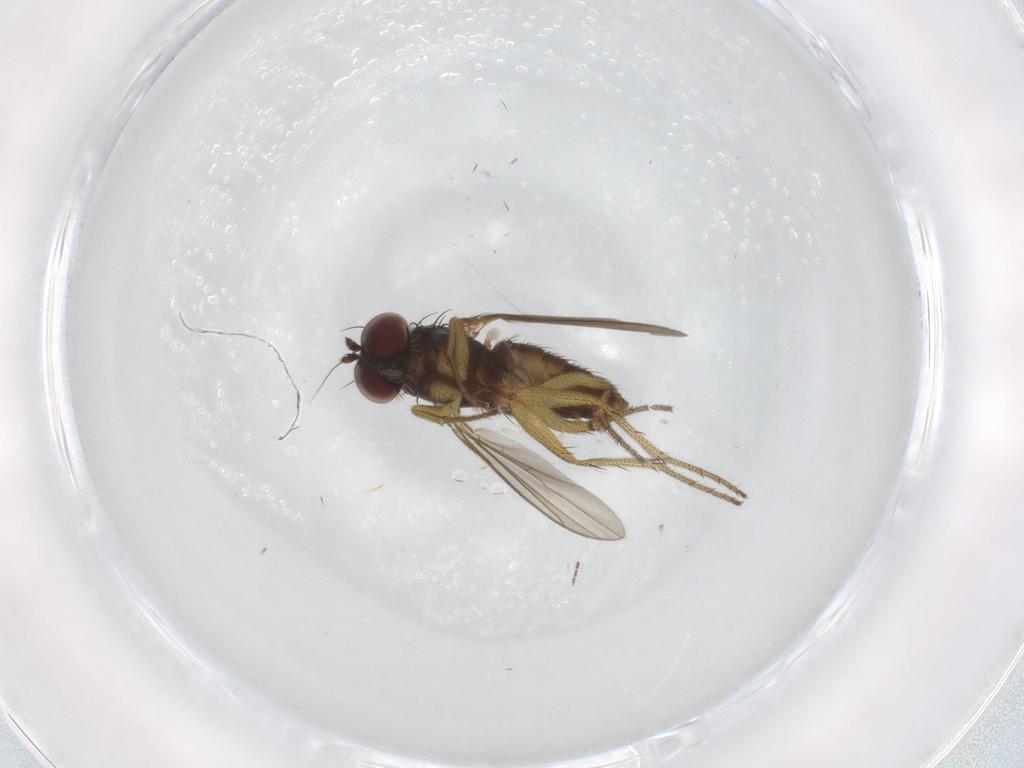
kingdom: Animalia
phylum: Arthropoda
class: Insecta
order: Diptera
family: Dolichopodidae
